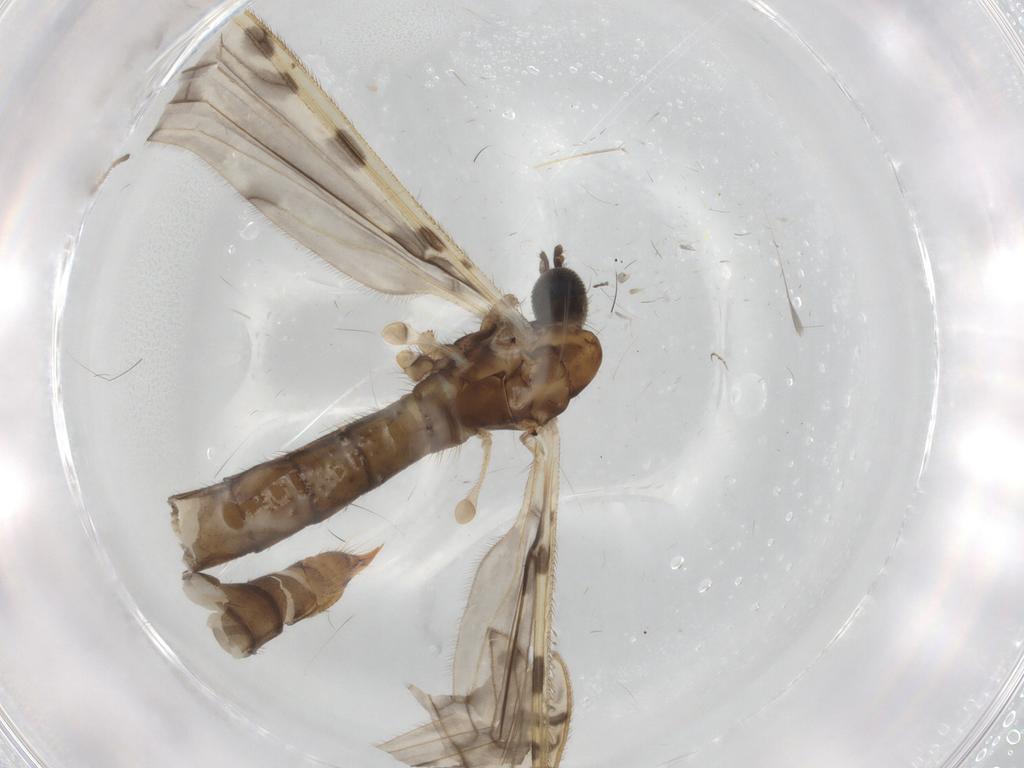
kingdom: Animalia
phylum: Arthropoda
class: Insecta
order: Diptera
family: Limoniidae
